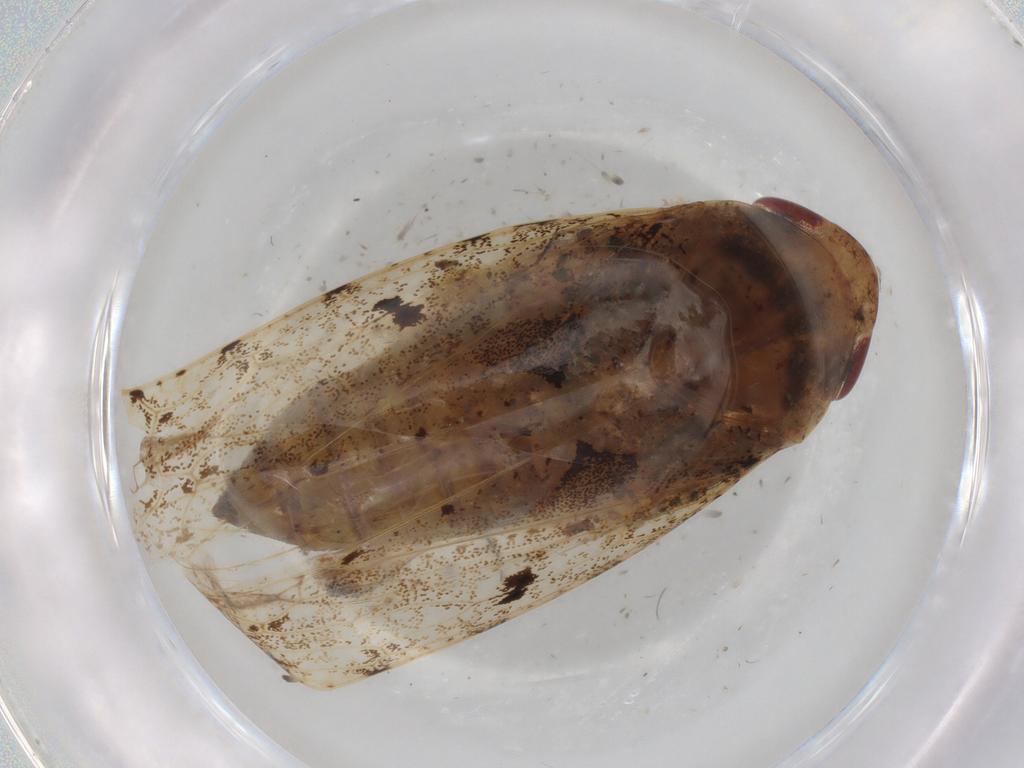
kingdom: Animalia
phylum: Arthropoda
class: Insecta
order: Hemiptera
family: Cicadellidae
